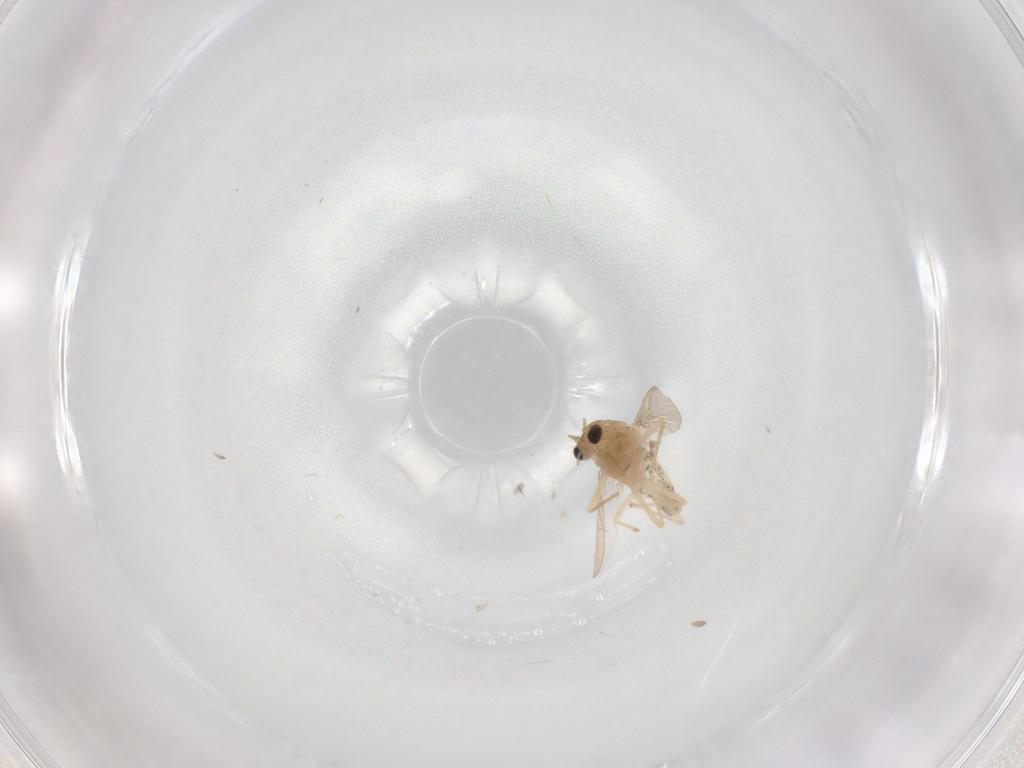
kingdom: Animalia
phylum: Arthropoda
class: Insecta
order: Diptera
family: Chironomidae
